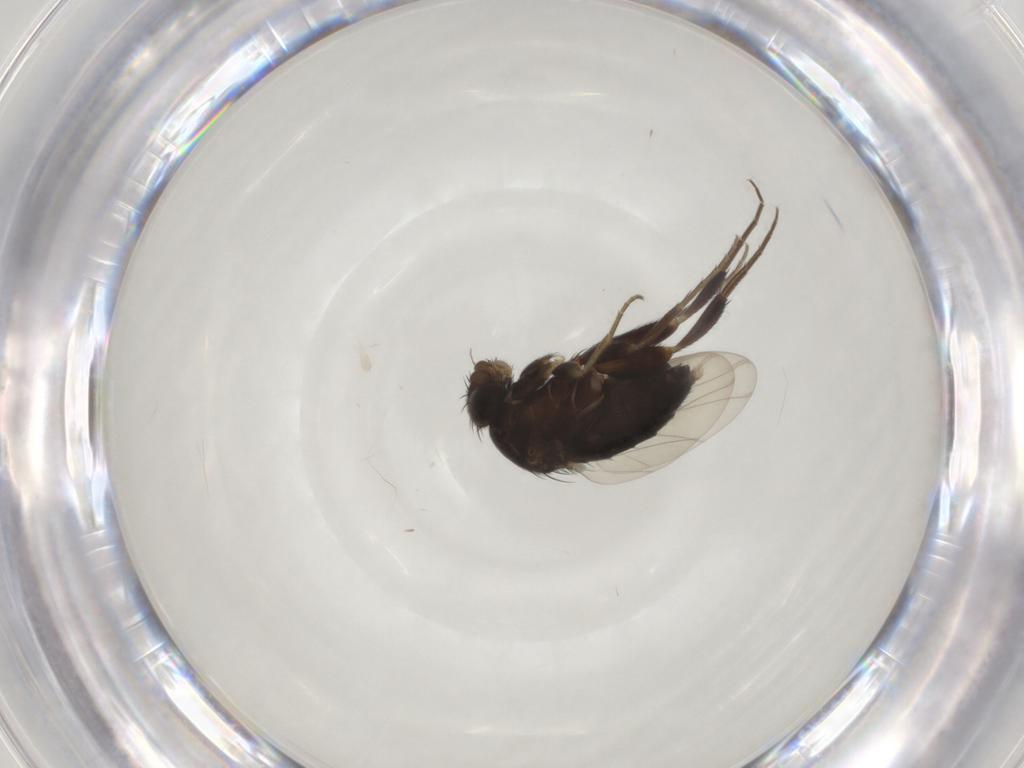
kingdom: Animalia
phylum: Arthropoda
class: Insecta
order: Diptera
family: Phoridae
